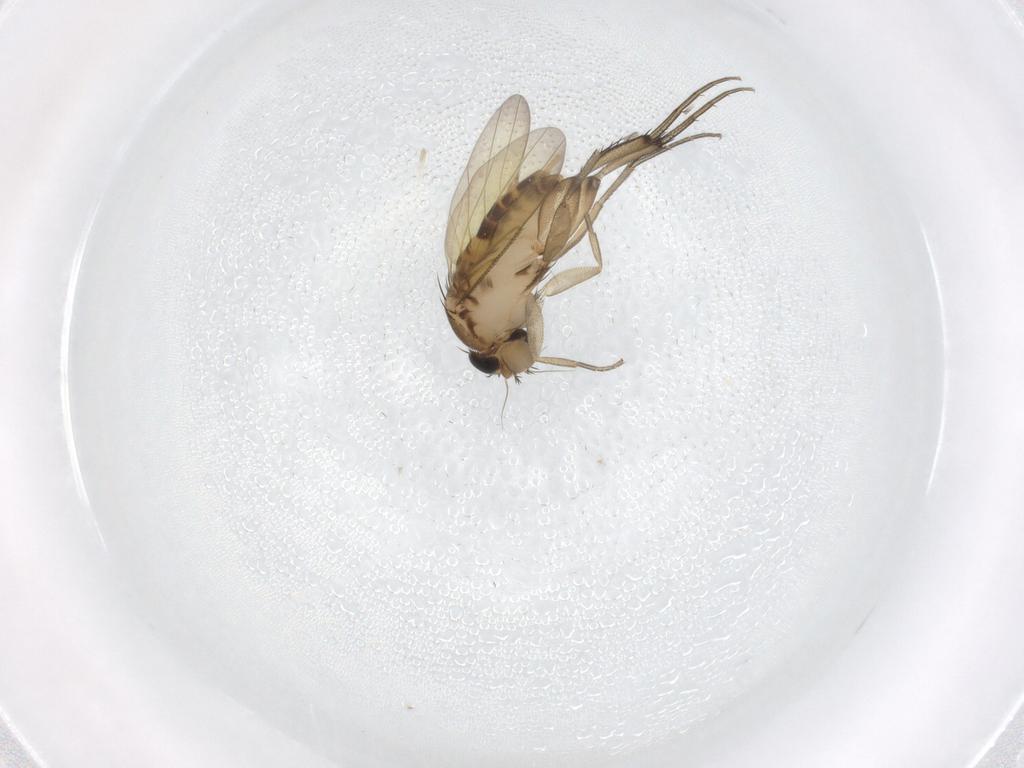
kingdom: Animalia
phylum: Arthropoda
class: Insecta
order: Diptera
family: Phoridae
